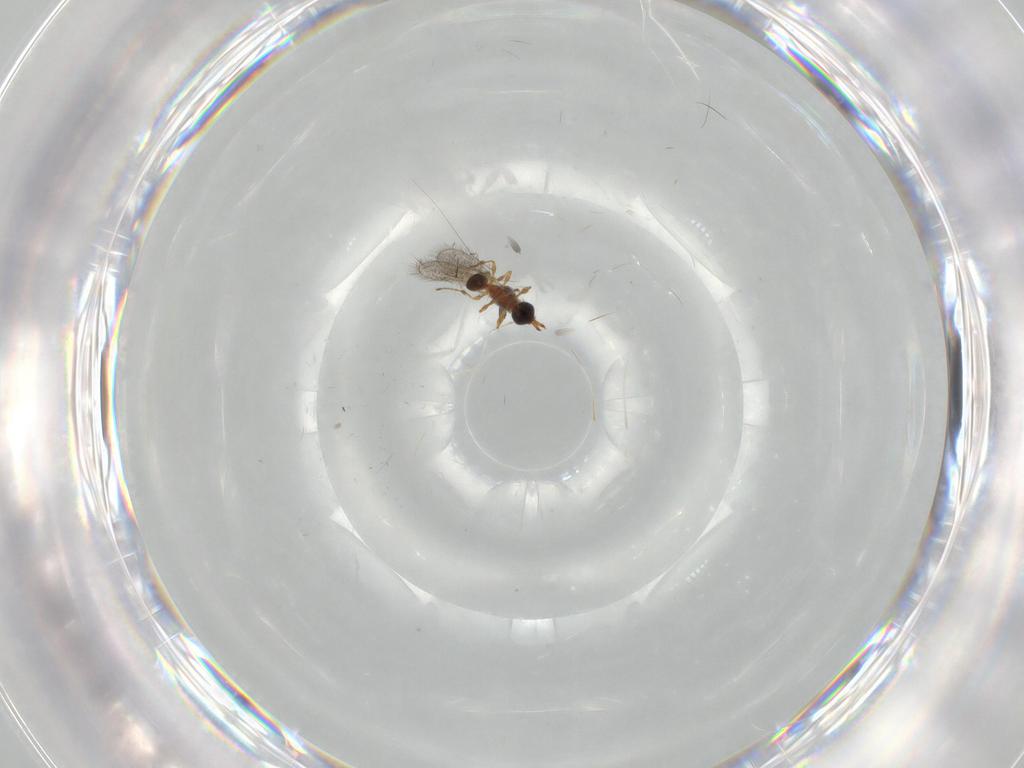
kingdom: Animalia
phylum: Arthropoda
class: Insecta
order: Hymenoptera
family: Diapriidae
